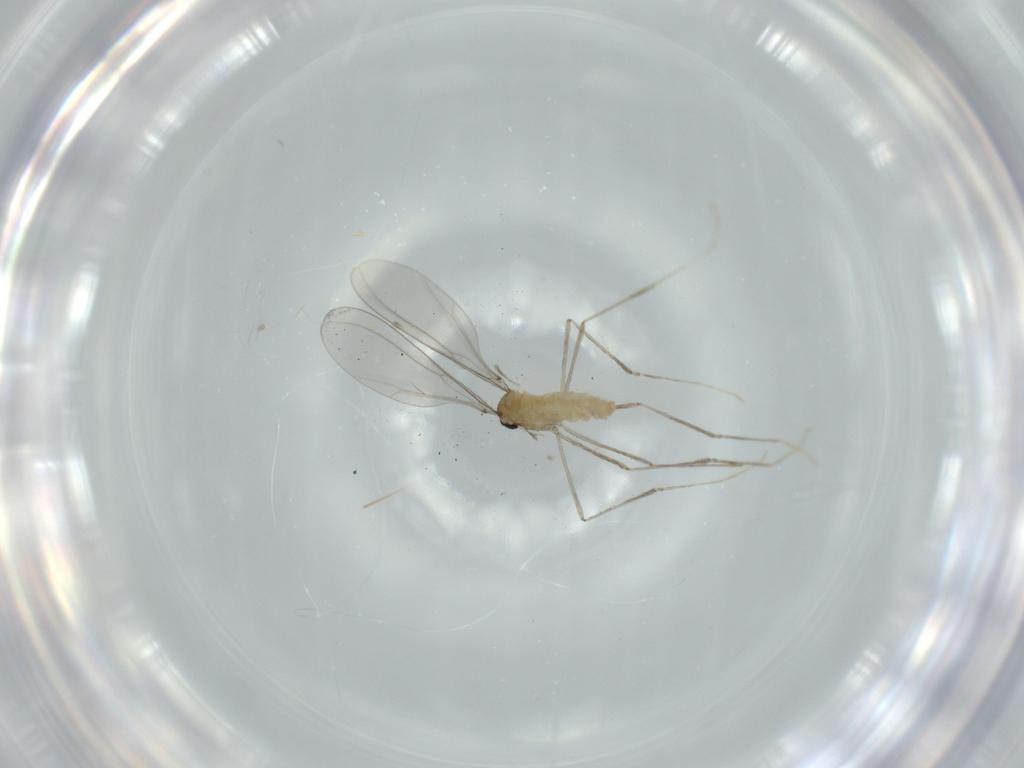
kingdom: Animalia
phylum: Arthropoda
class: Insecta
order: Diptera
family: Cecidomyiidae
